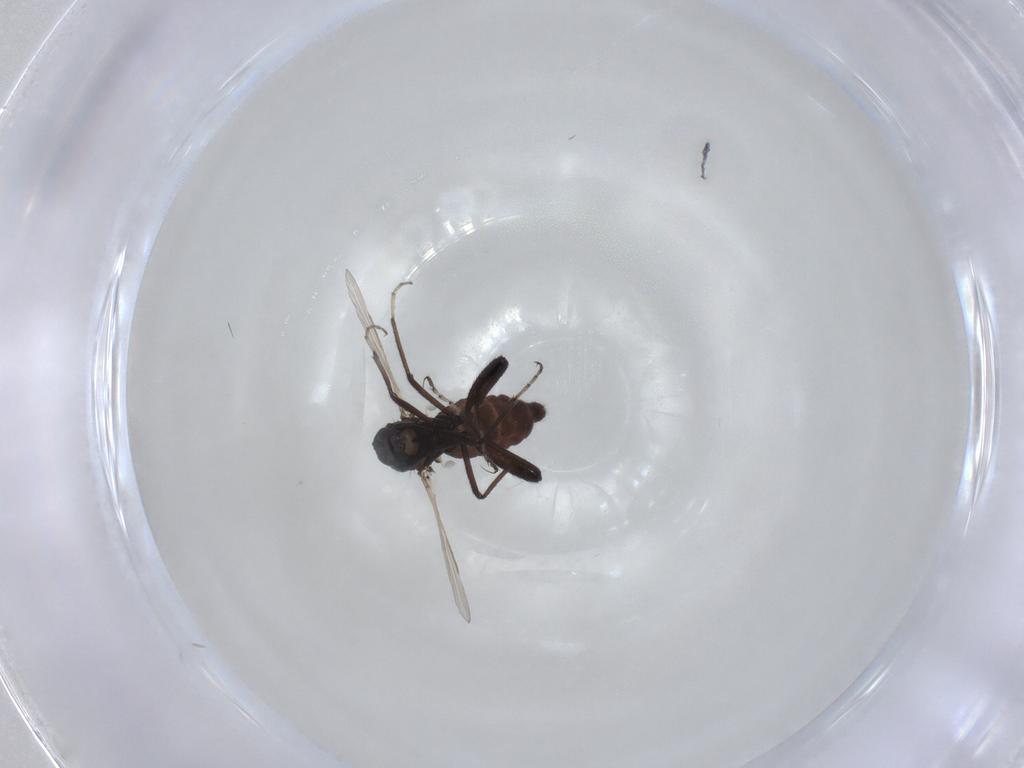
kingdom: Animalia
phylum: Arthropoda
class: Insecta
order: Diptera
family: Ceratopogonidae
